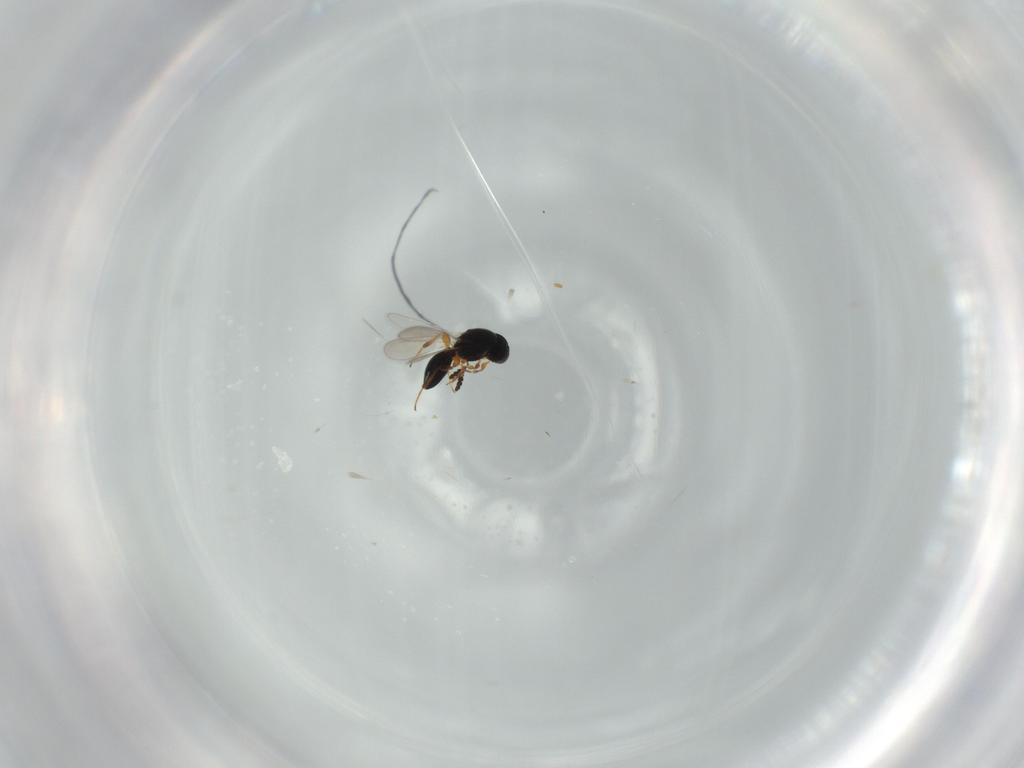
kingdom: Animalia
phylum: Arthropoda
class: Insecta
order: Hymenoptera
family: Platygastridae
